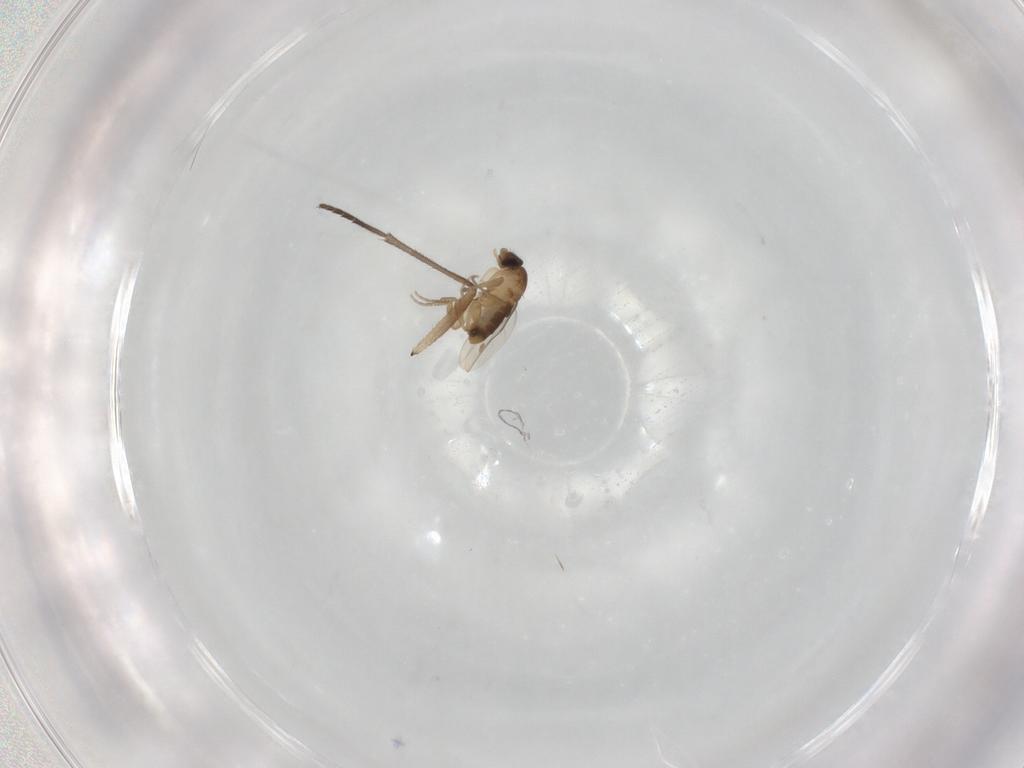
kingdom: Animalia
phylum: Arthropoda
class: Insecta
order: Diptera
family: Phoridae
